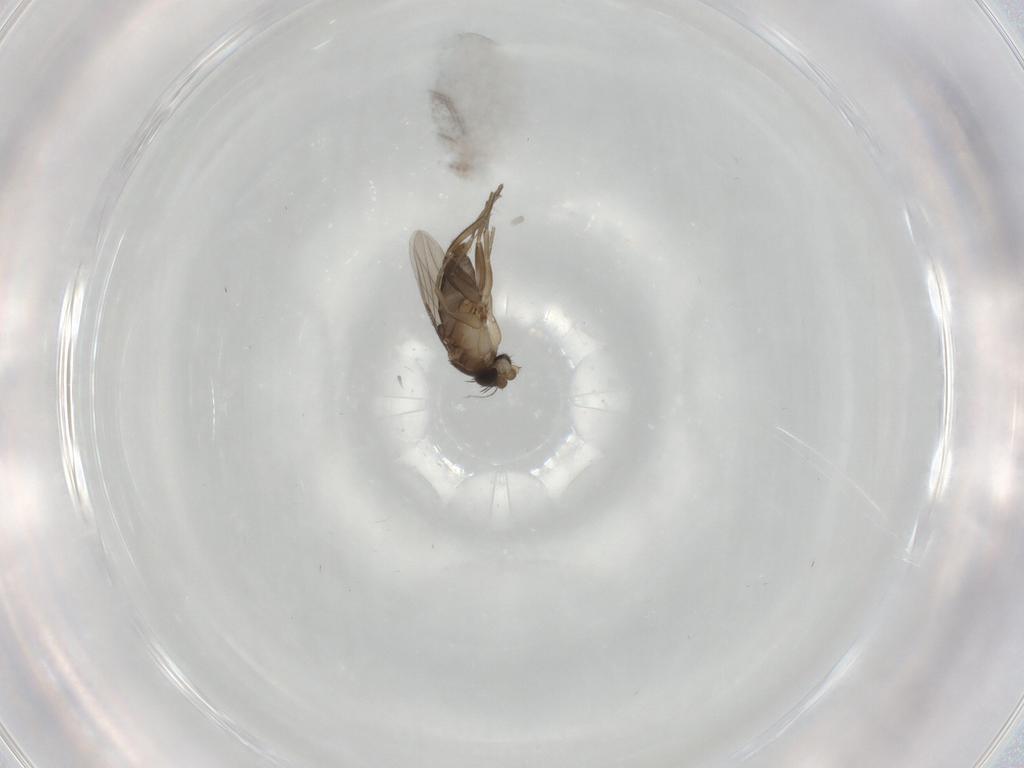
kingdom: Animalia
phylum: Arthropoda
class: Insecta
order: Diptera
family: Phoridae
